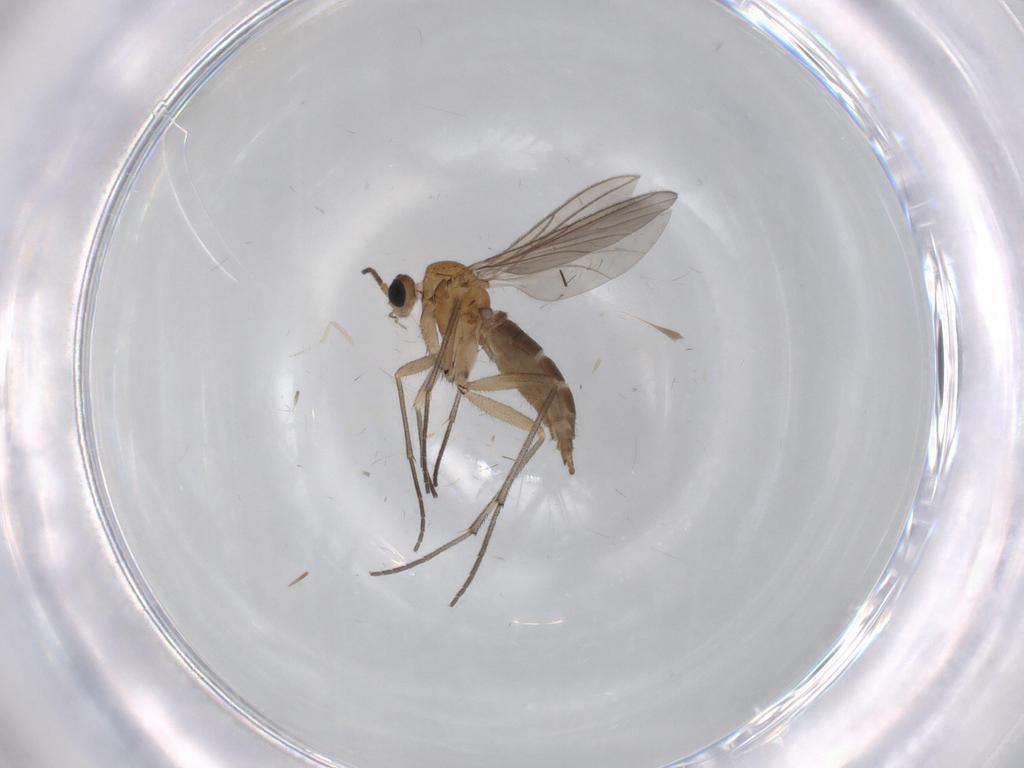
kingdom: Animalia
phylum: Arthropoda
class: Insecta
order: Diptera
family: Sciaridae
